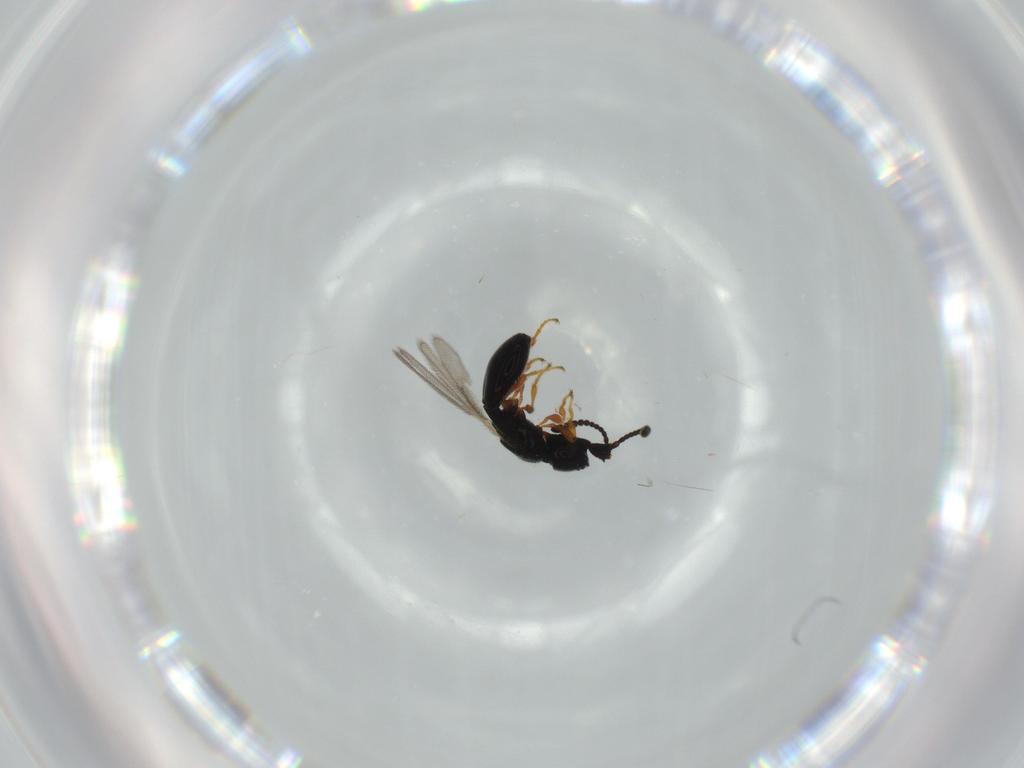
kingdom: Animalia
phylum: Arthropoda
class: Insecta
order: Hymenoptera
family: Diapriidae
